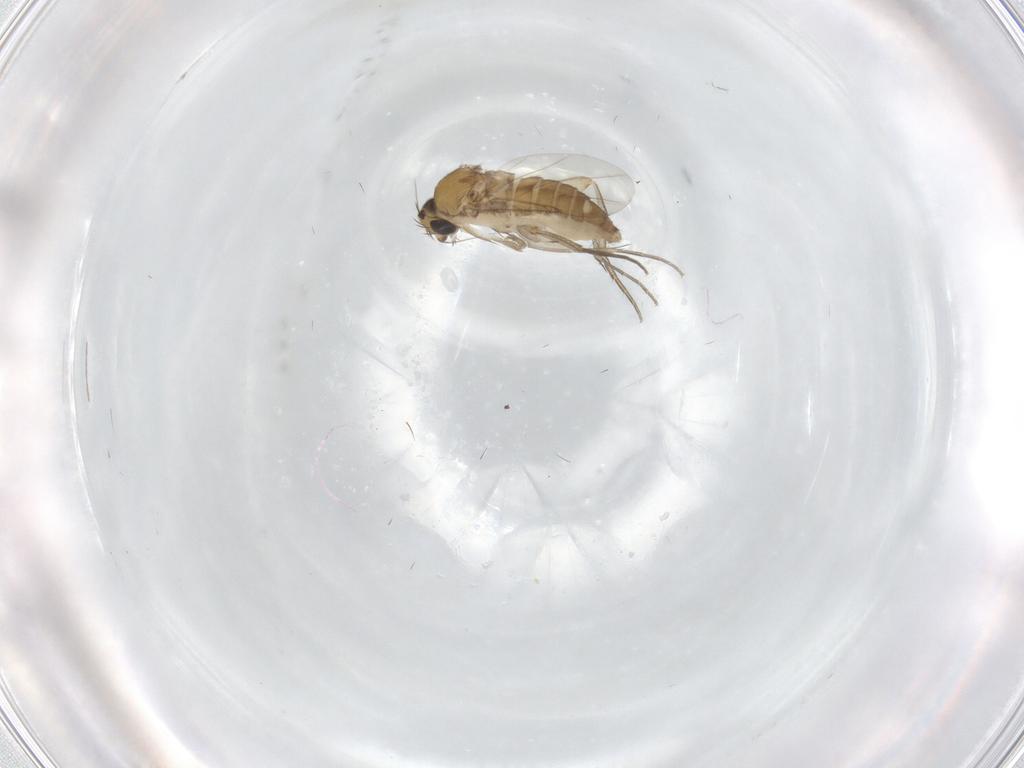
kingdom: Animalia
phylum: Arthropoda
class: Insecta
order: Diptera
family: Phoridae
